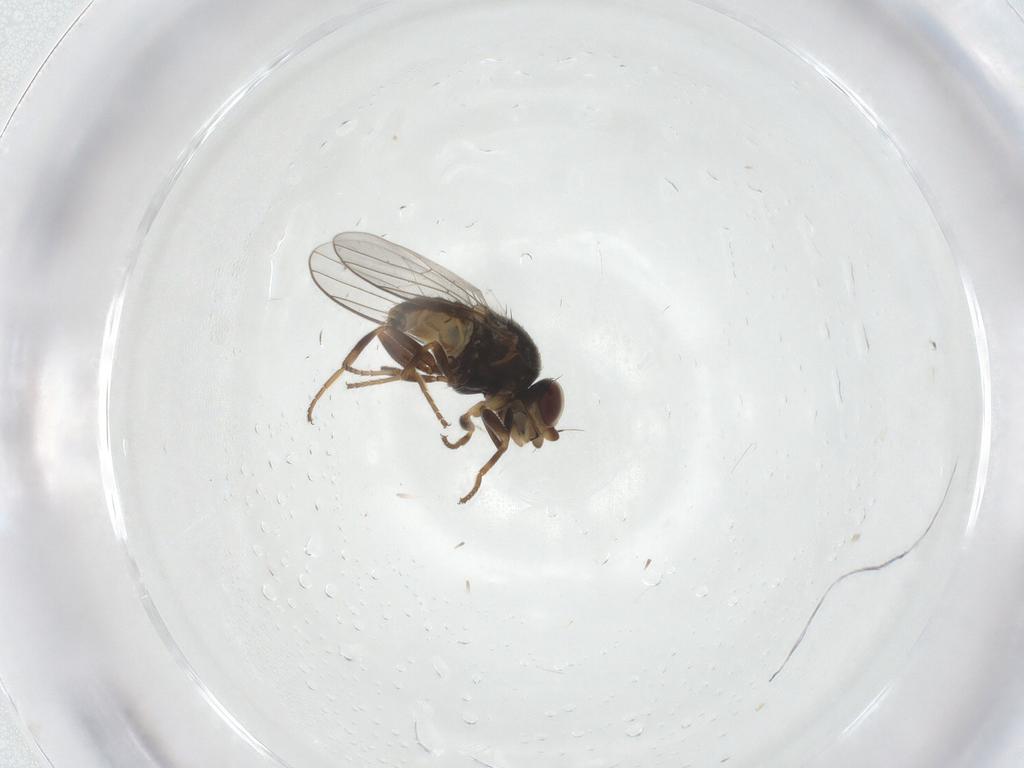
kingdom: Animalia
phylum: Arthropoda
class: Insecta
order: Diptera
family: Chloropidae
